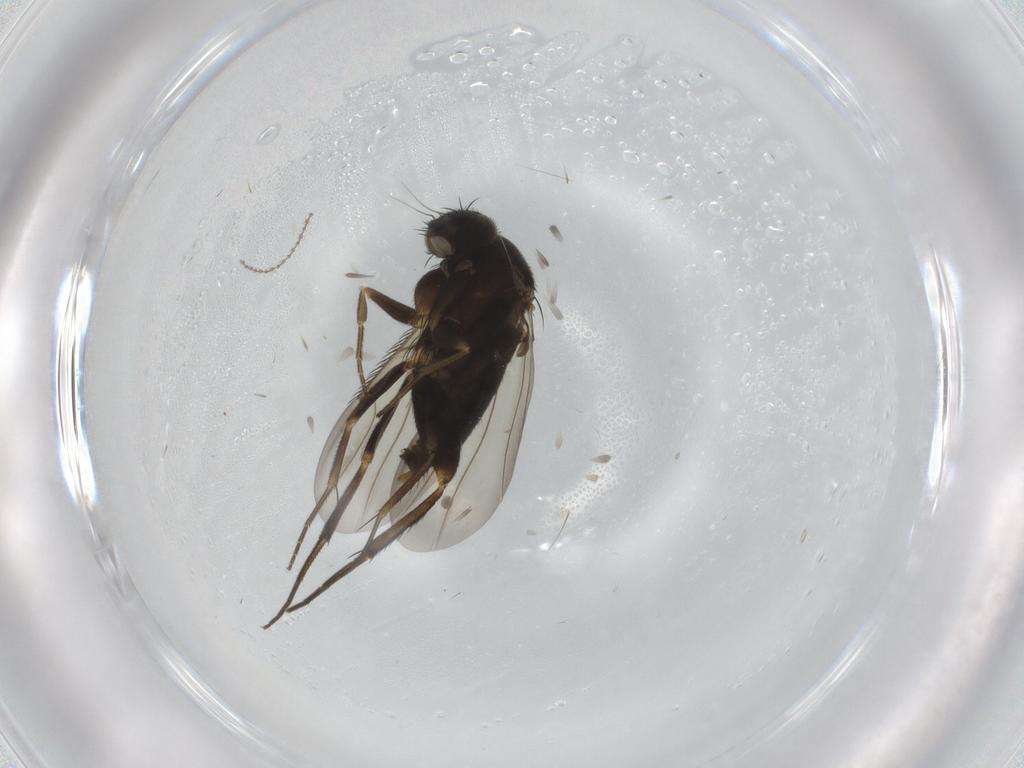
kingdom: Animalia
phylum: Arthropoda
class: Insecta
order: Diptera
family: Phoridae
